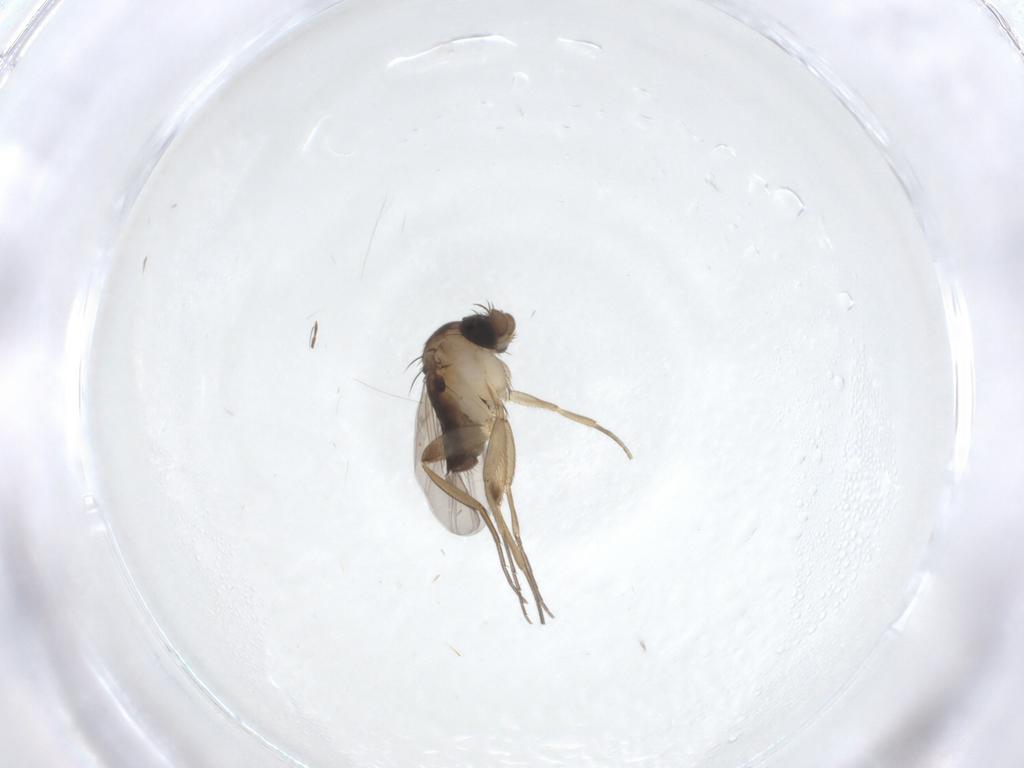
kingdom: Animalia
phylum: Arthropoda
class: Insecta
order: Diptera
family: Phoridae
